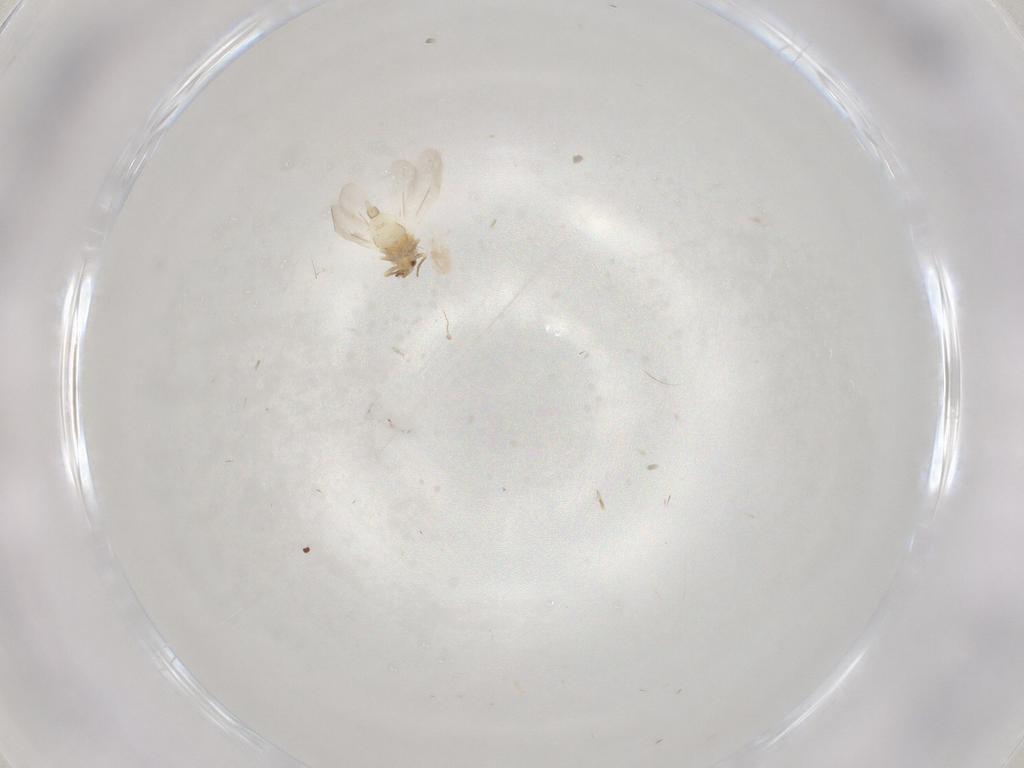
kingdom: Animalia
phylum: Arthropoda
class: Insecta
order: Psocodea
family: Lachesillidae
